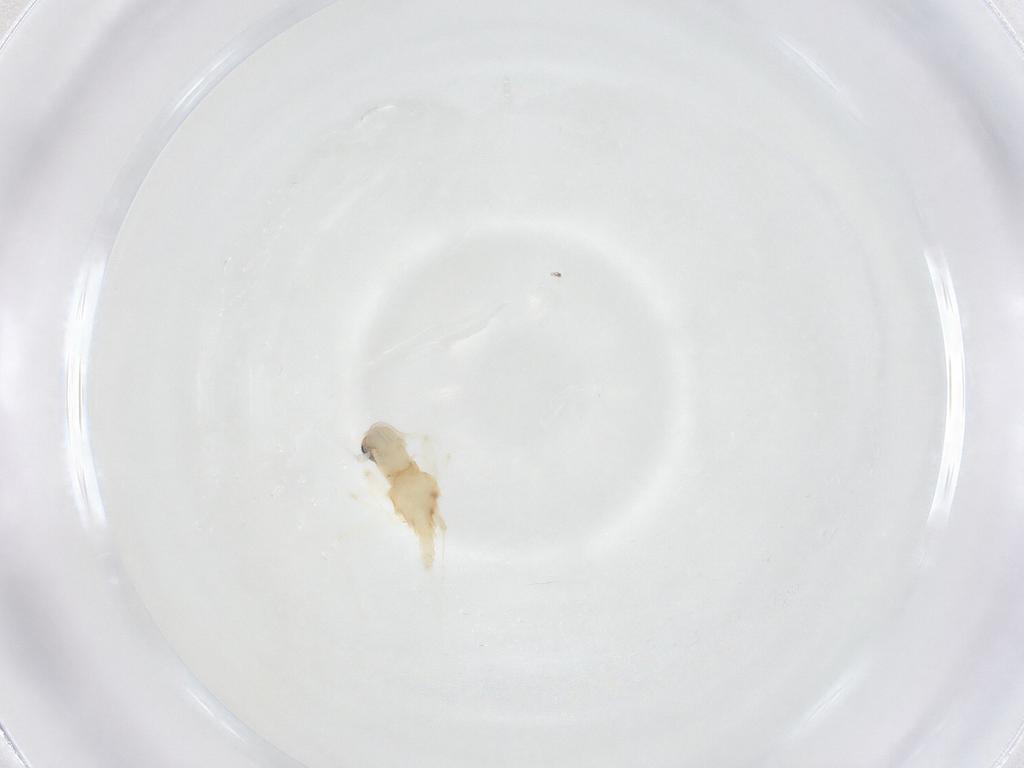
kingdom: Animalia
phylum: Arthropoda
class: Insecta
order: Diptera
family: Sciaridae
